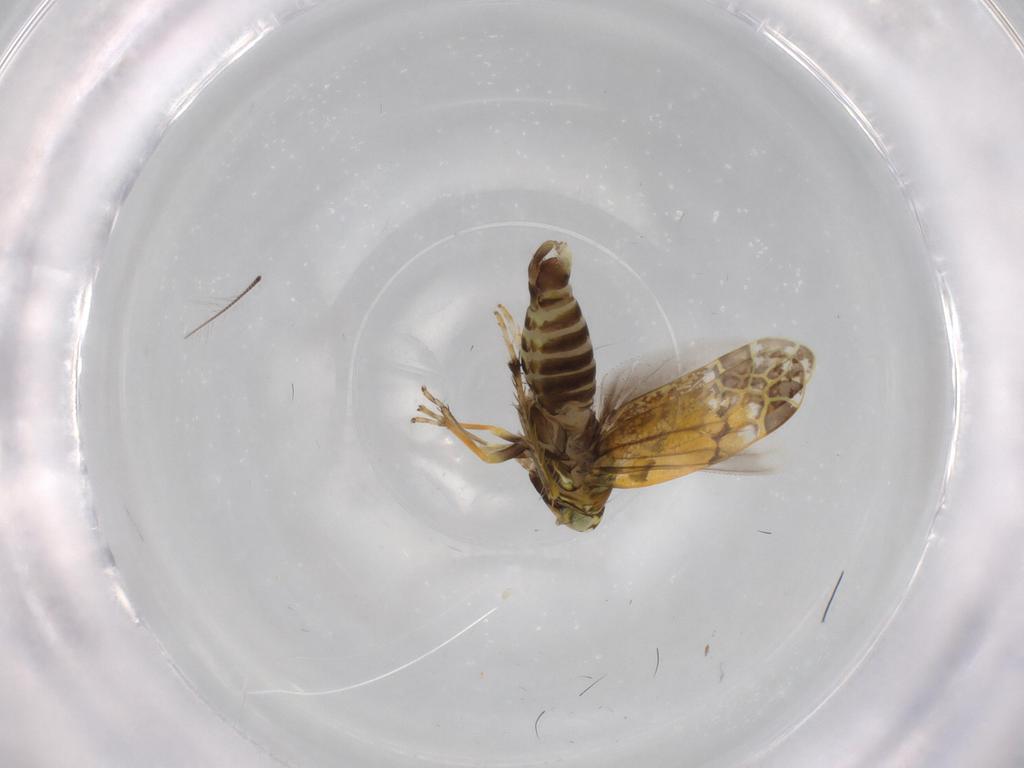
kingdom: Animalia
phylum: Arthropoda
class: Insecta
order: Hemiptera
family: Cicadellidae
